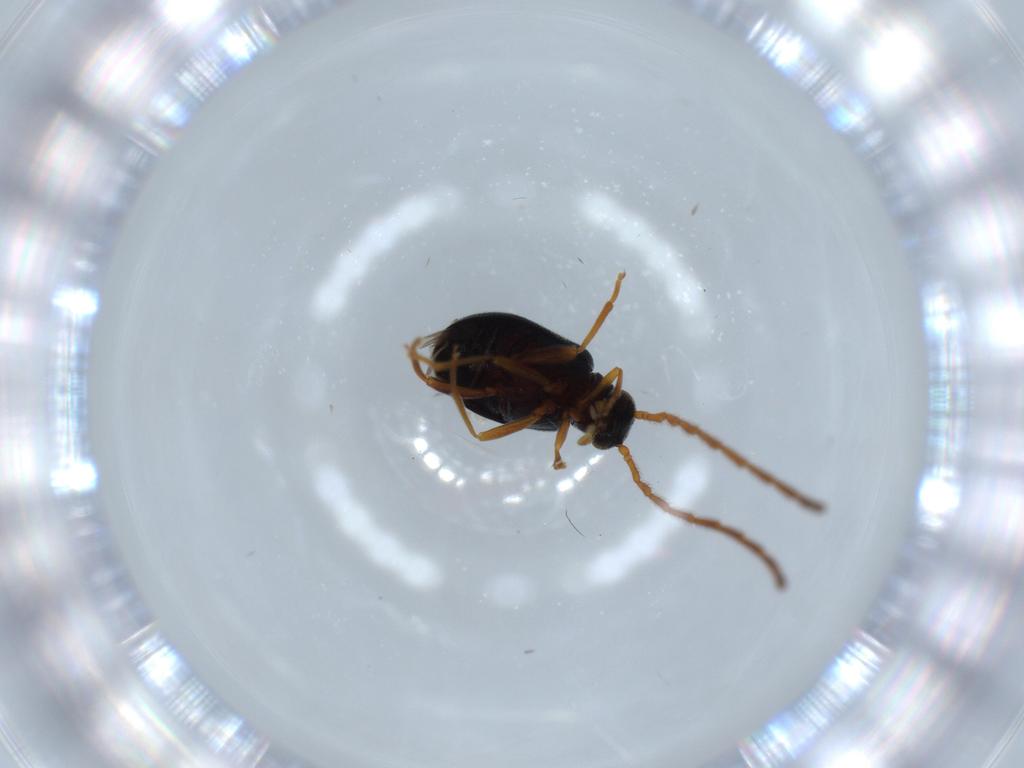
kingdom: Animalia
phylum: Arthropoda
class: Insecta
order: Coleoptera
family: Aderidae
